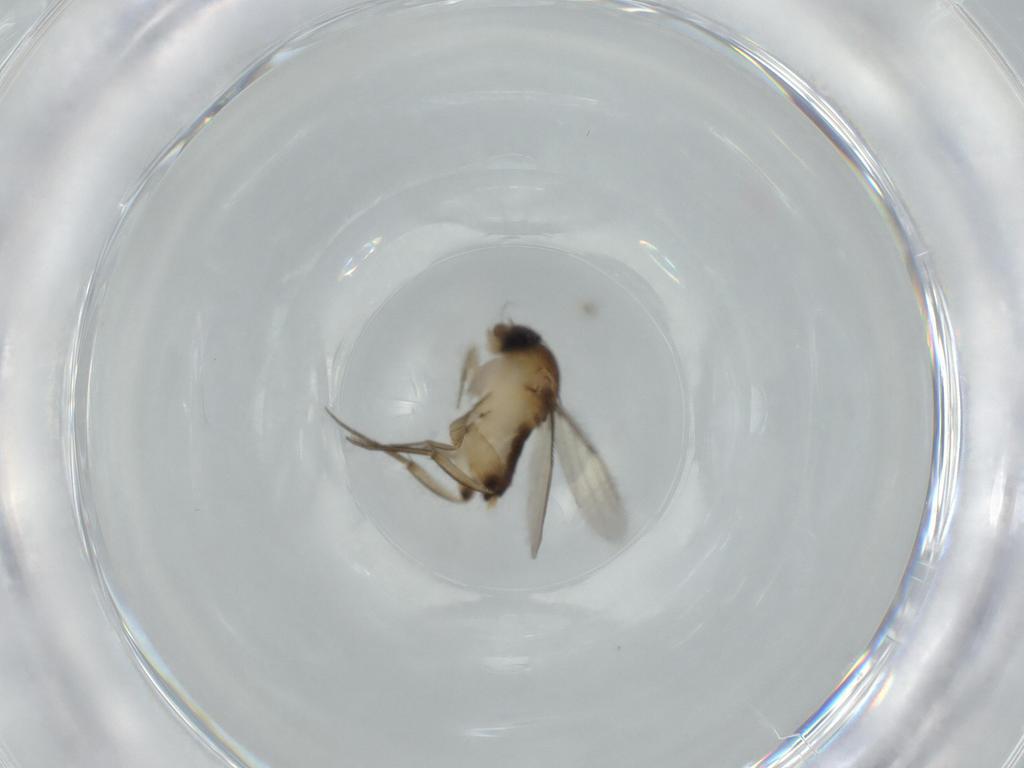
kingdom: Animalia
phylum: Arthropoda
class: Insecta
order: Diptera
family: Phoridae
